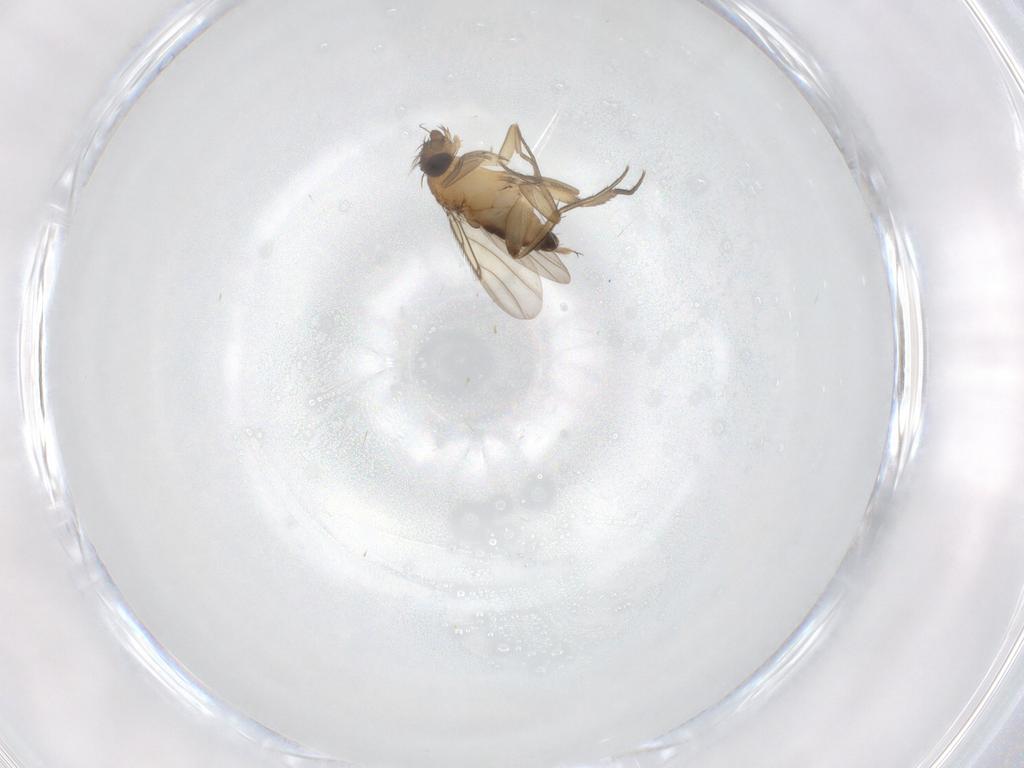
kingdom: Animalia
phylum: Arthropoda
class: Insecta
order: Diptera
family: Phoridae
